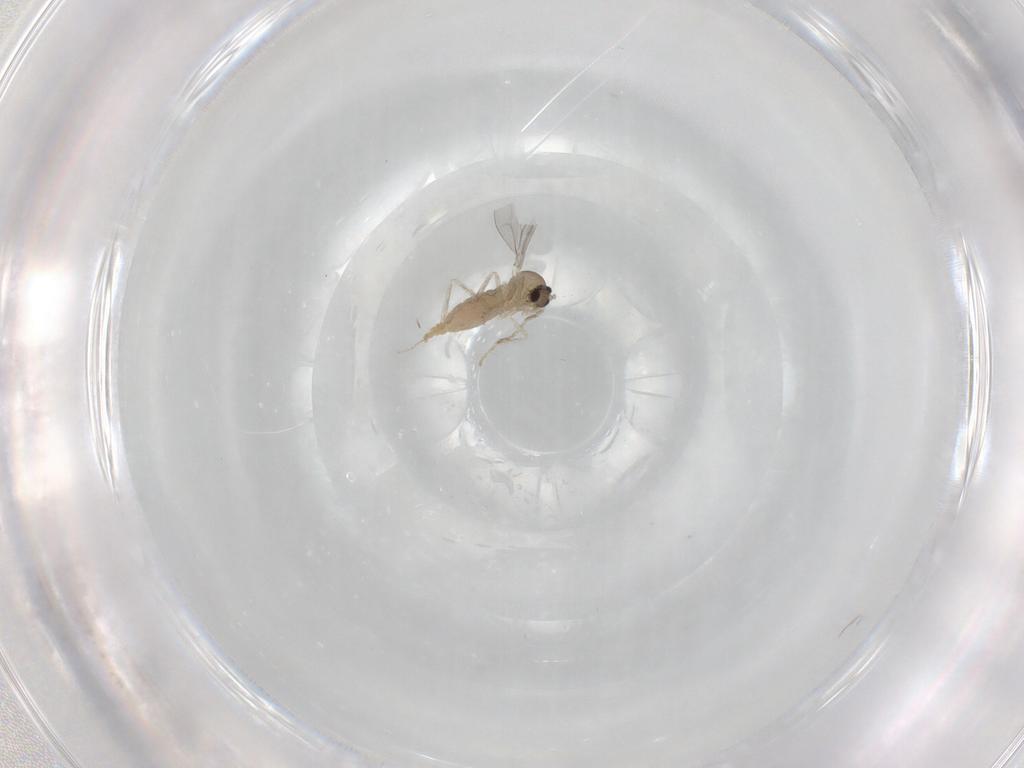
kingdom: Animalia
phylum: Arthropoda
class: Insecta
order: Diptera
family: Cecidomyiidae
